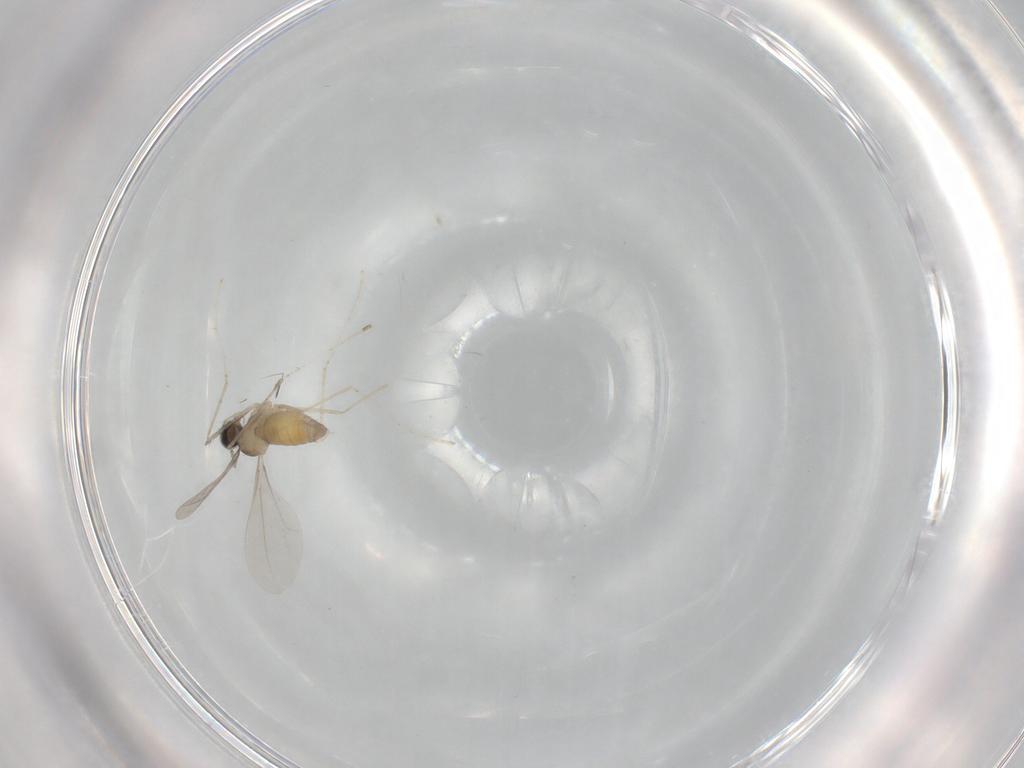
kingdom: Animalia
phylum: Arthropoda
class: Insecta
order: Diptera
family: Cecidomyiidae
